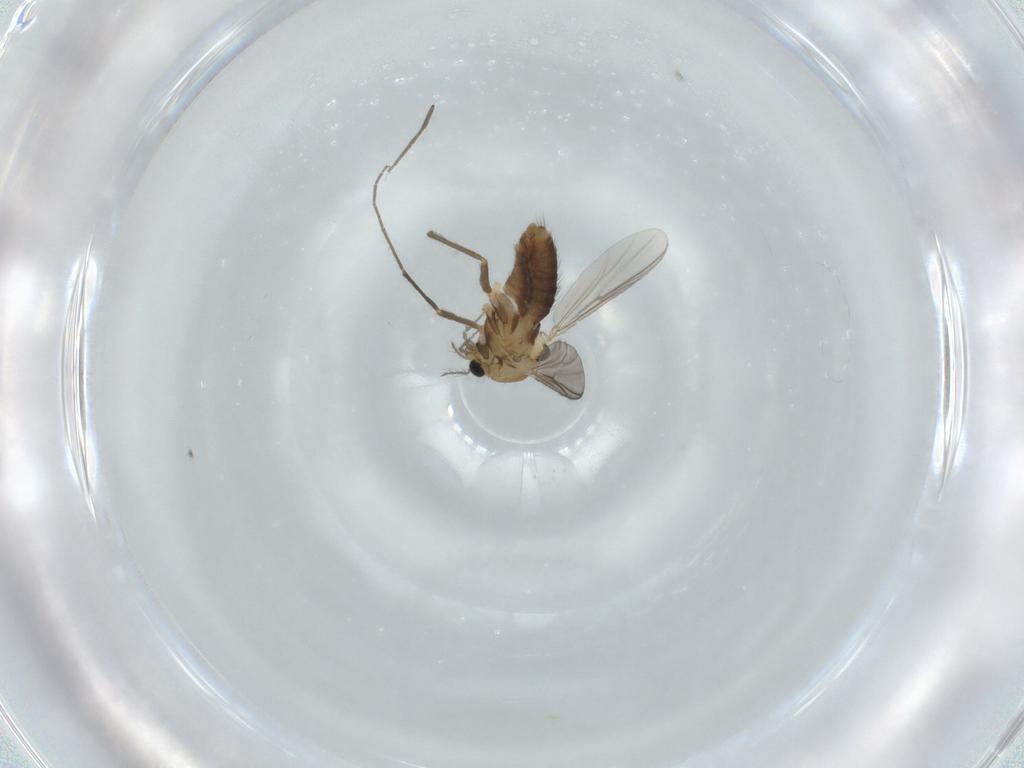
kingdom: Animalia
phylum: Arthropoda
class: Insecta
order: Diptera
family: Chironomidae
